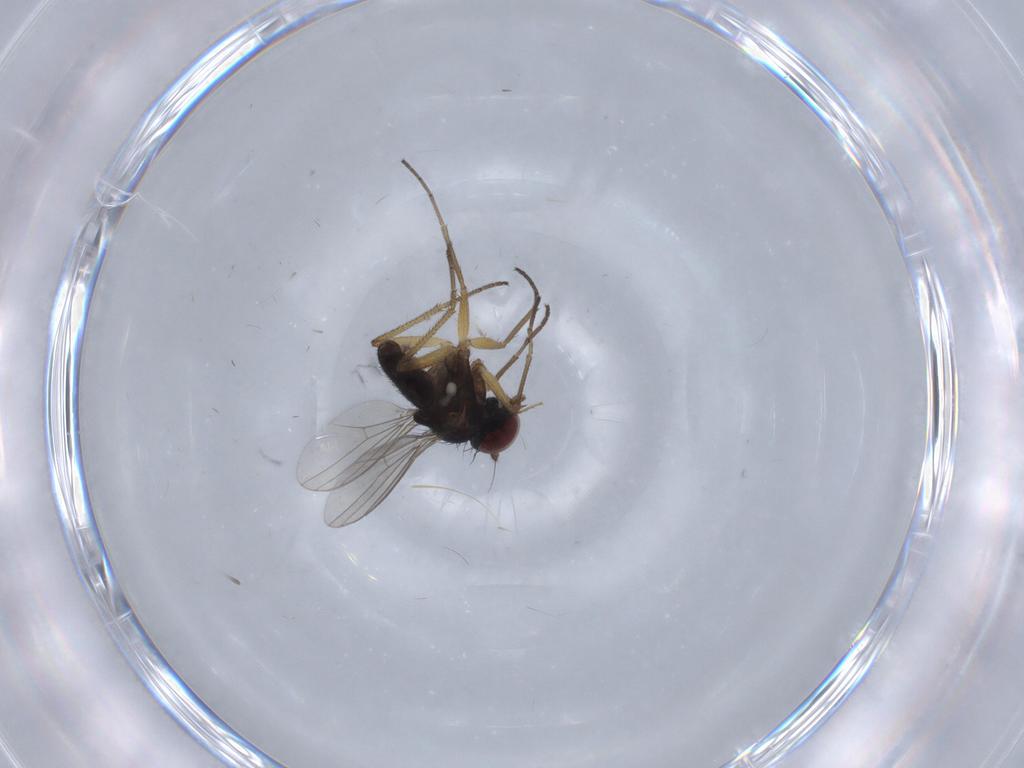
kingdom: Animalia
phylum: Arthropoda
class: Insecta
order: Diptera
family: Dolichopodidae
